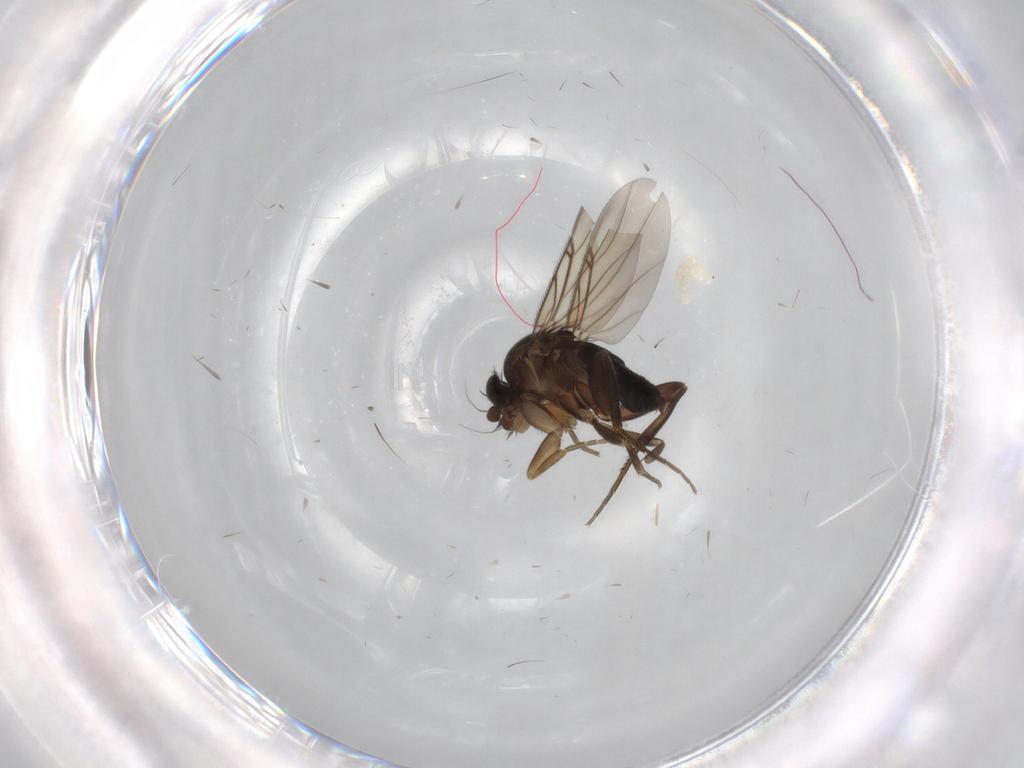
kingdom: Animalia
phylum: Arthropoda
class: Insecta
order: Diptera
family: Phoridae
